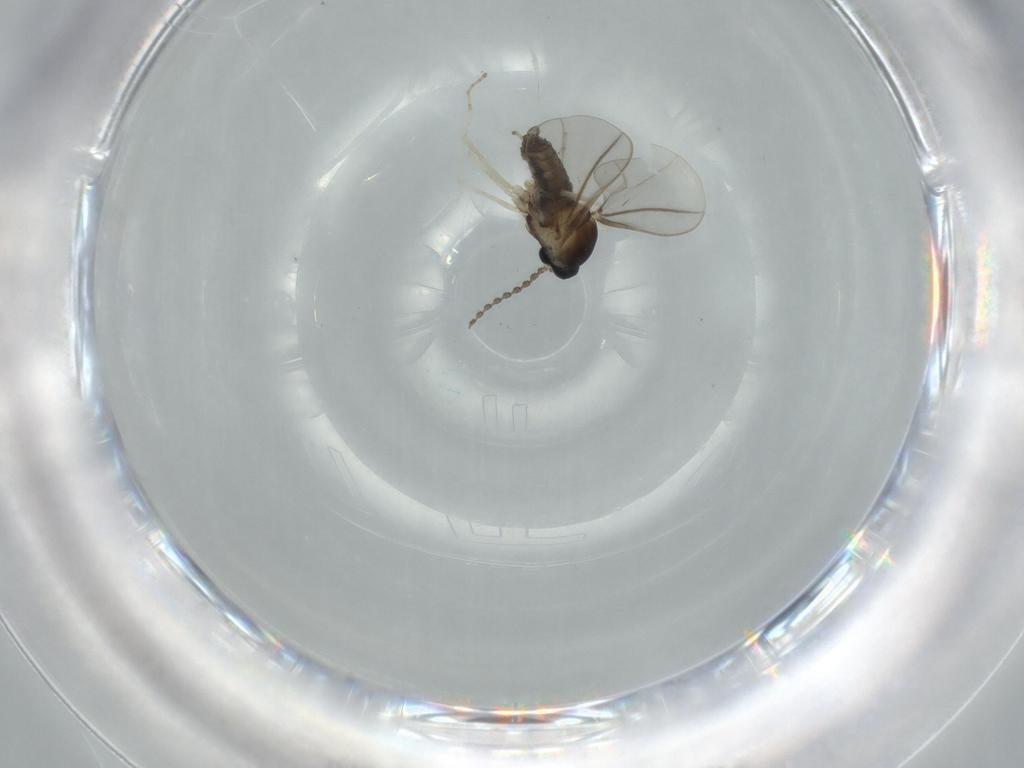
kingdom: Animalia
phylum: Arthropoda
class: Insecta
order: Diptera
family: Cecidomyiidae
